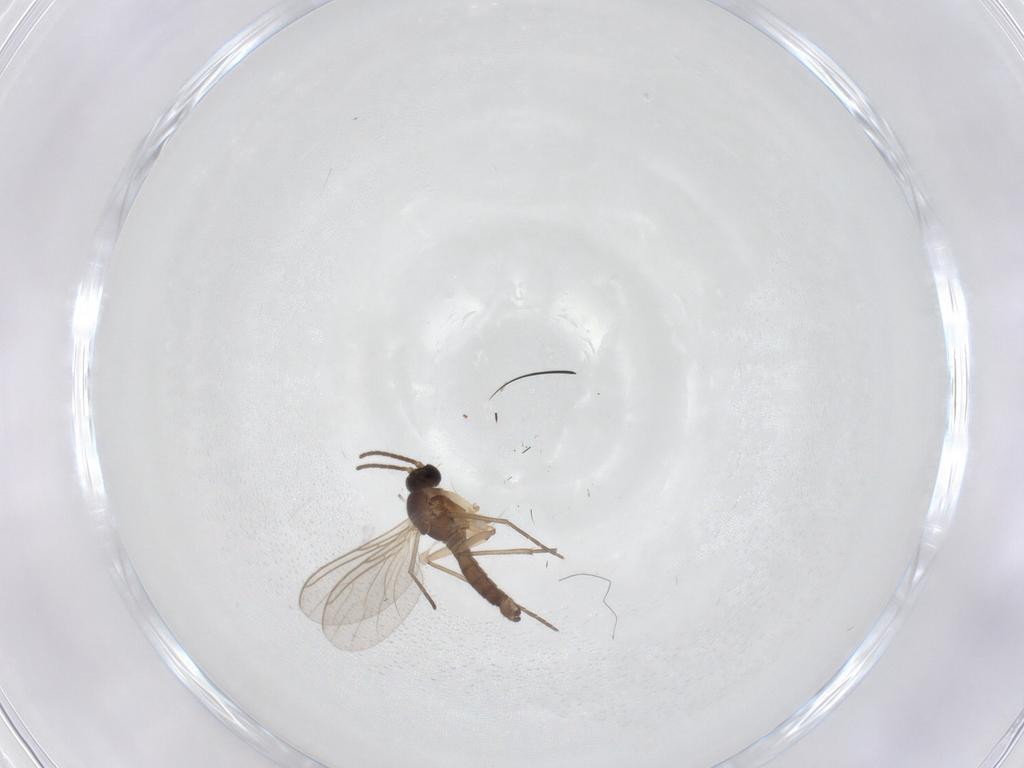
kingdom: Animalia
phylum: Arthropoda
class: Insecta
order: Diptera
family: Sciaridae
